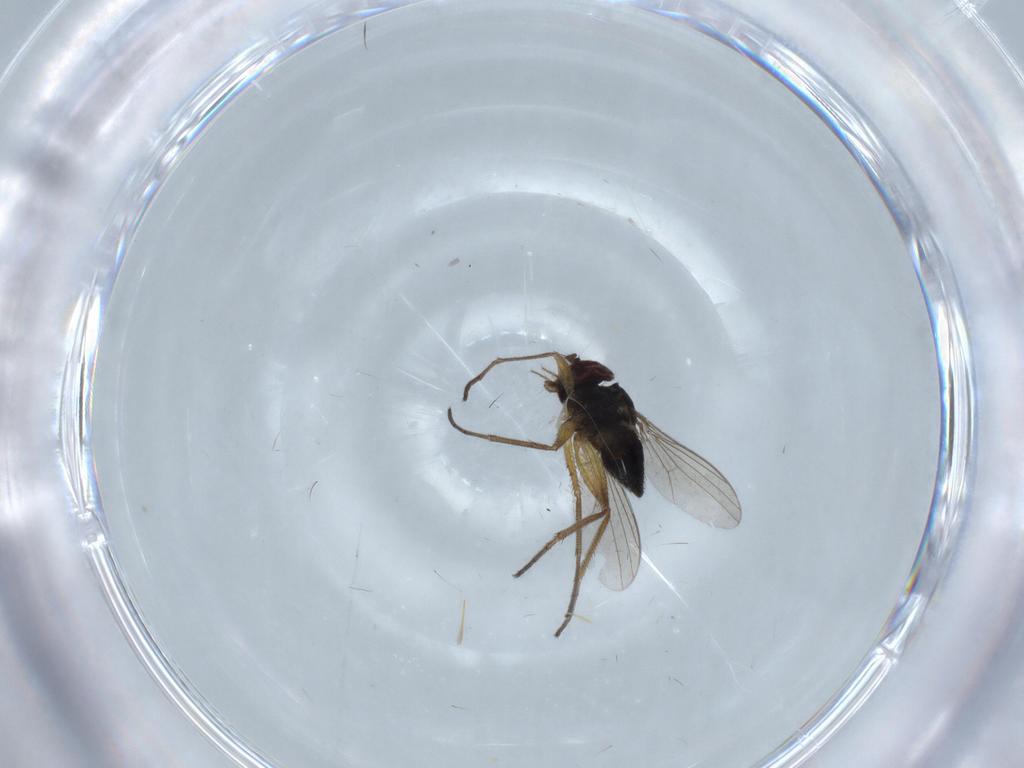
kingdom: Animalia
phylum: Arthropoda
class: Insecta
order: Diptera
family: Dolichopodidae
